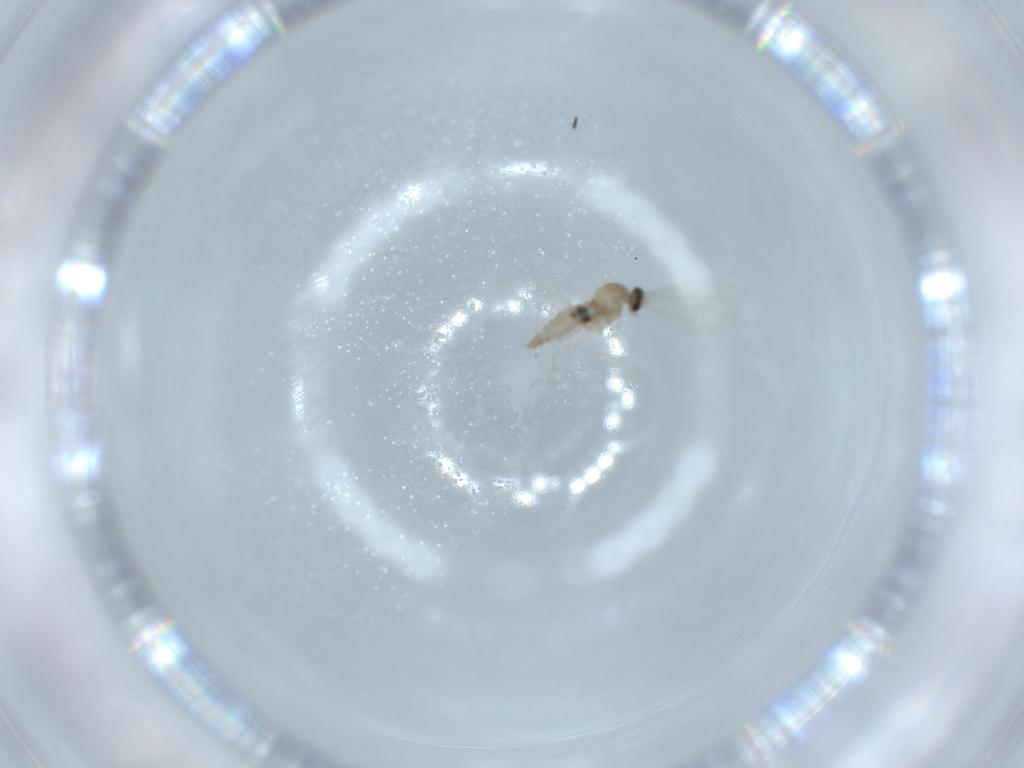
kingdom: Animalia
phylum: Arthropoda
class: Insecta
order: Diptera
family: Cecidomyiidae
